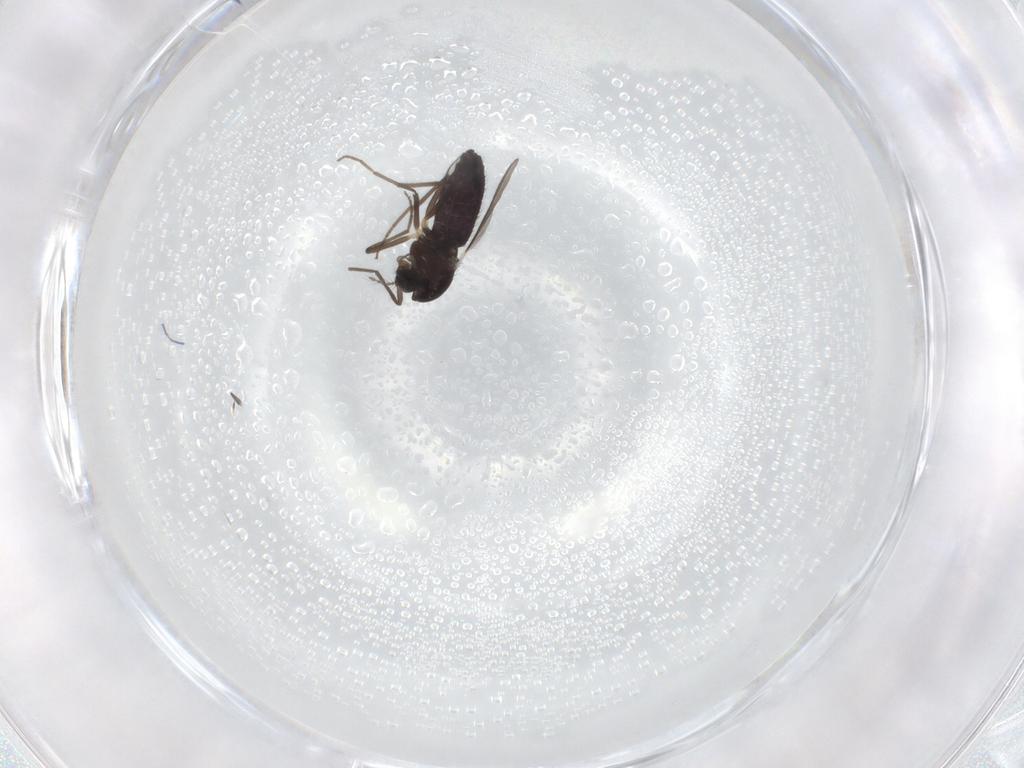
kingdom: Animalia
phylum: Arthropoda
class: Insecta
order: Diptera
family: Chironomidae
